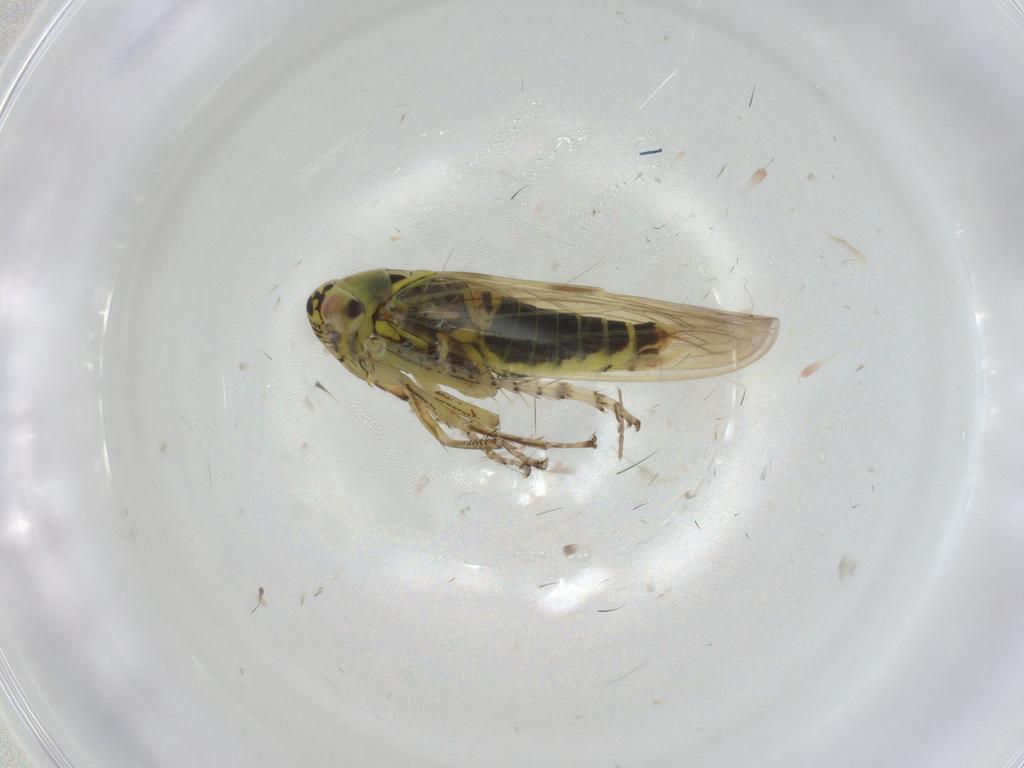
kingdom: Animalia
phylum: Arthropoda
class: Insecta
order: Hemiptera
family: Cicadellidae
